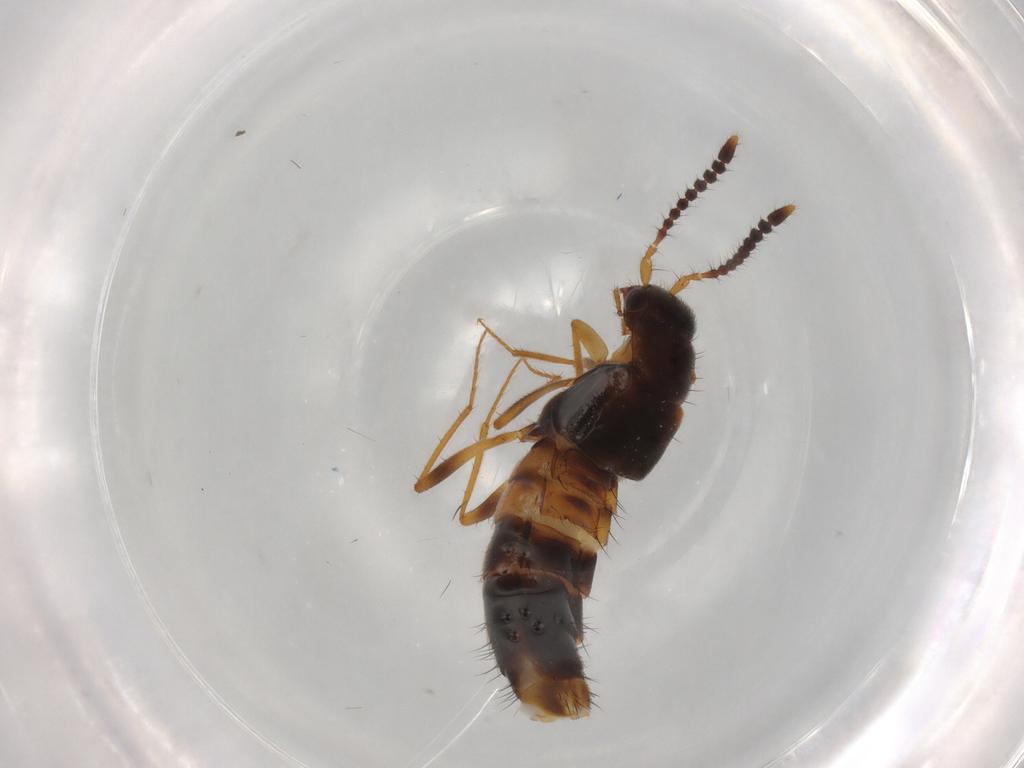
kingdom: Animalia
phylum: Arthropoda
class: Insecta
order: Coleoptera
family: Staphylinidae
